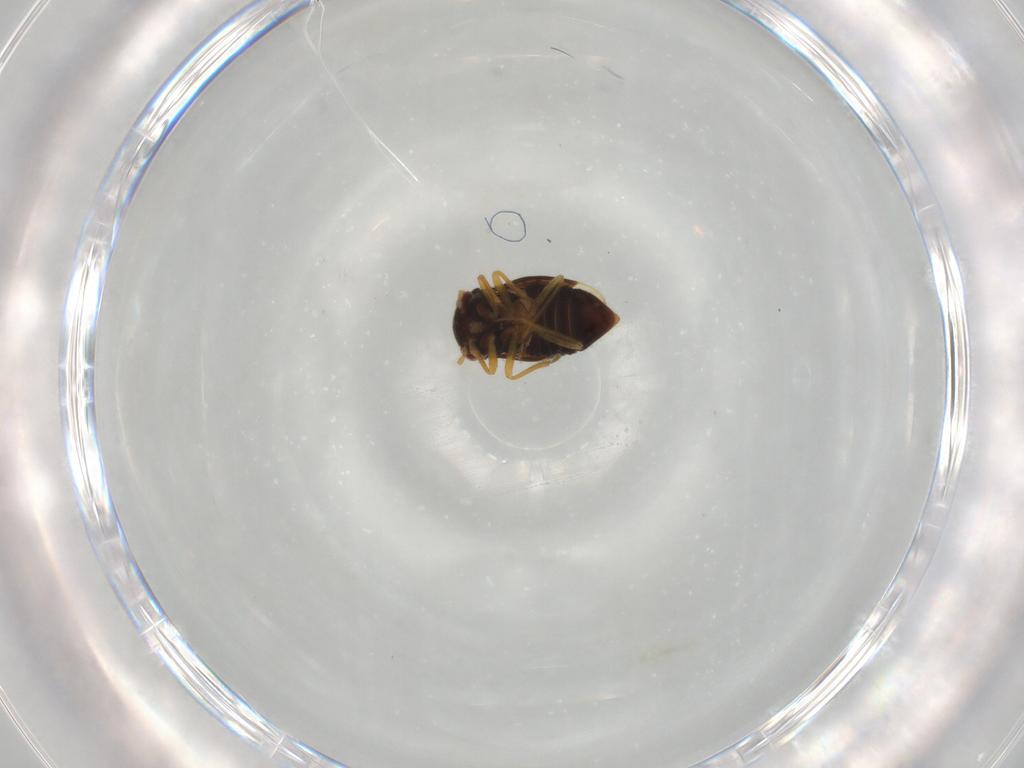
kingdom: Animalia
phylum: Arthropoda
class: Insecta
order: Hemiptera
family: Schizopteridae
